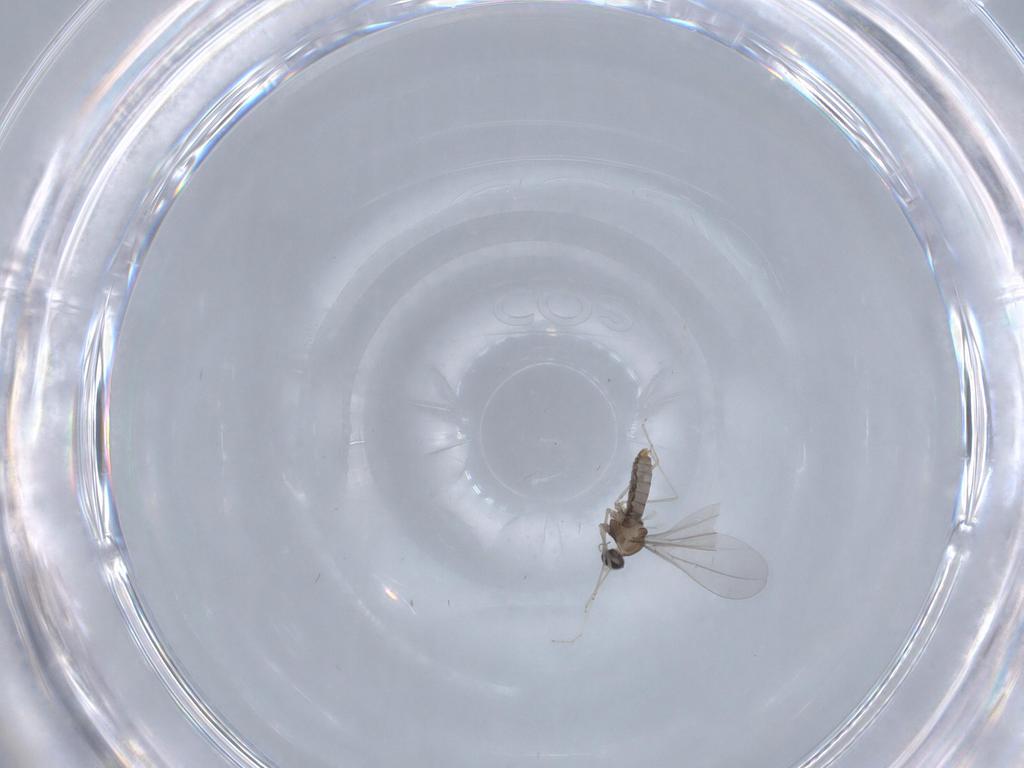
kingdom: Animalia
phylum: Arthropoda
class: Insecta
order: Diptera
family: Cecidomyiidae
